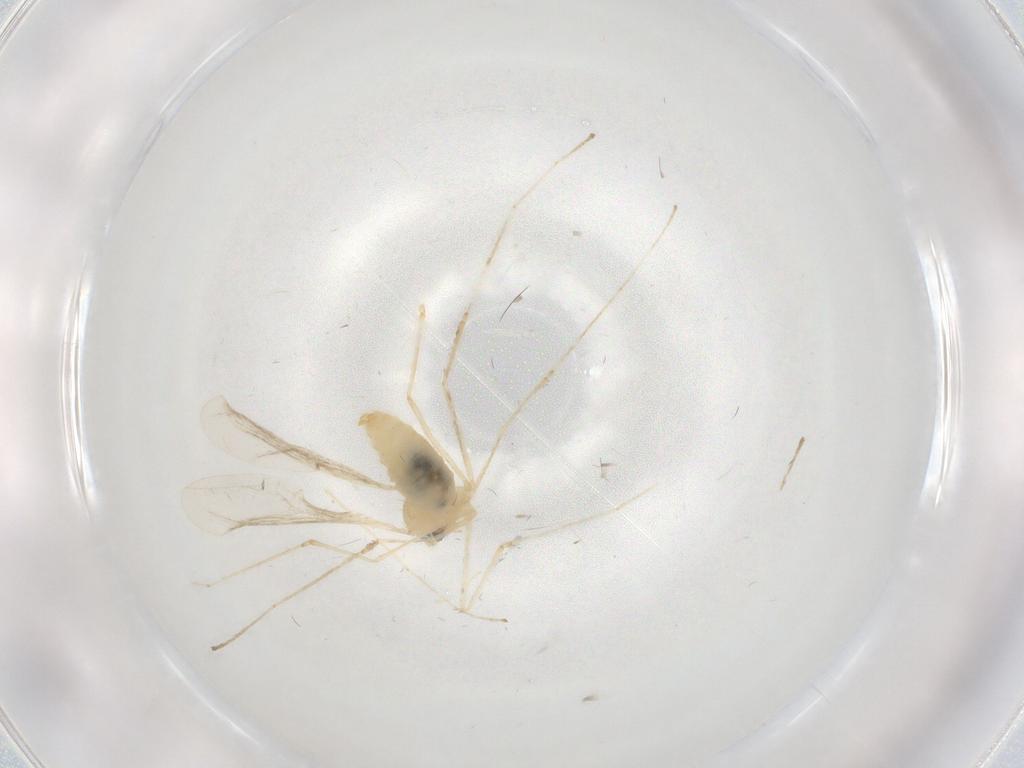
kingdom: Animalia
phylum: Arthropoda
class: Insecta
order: Diptera
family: Cecidomyiidae
